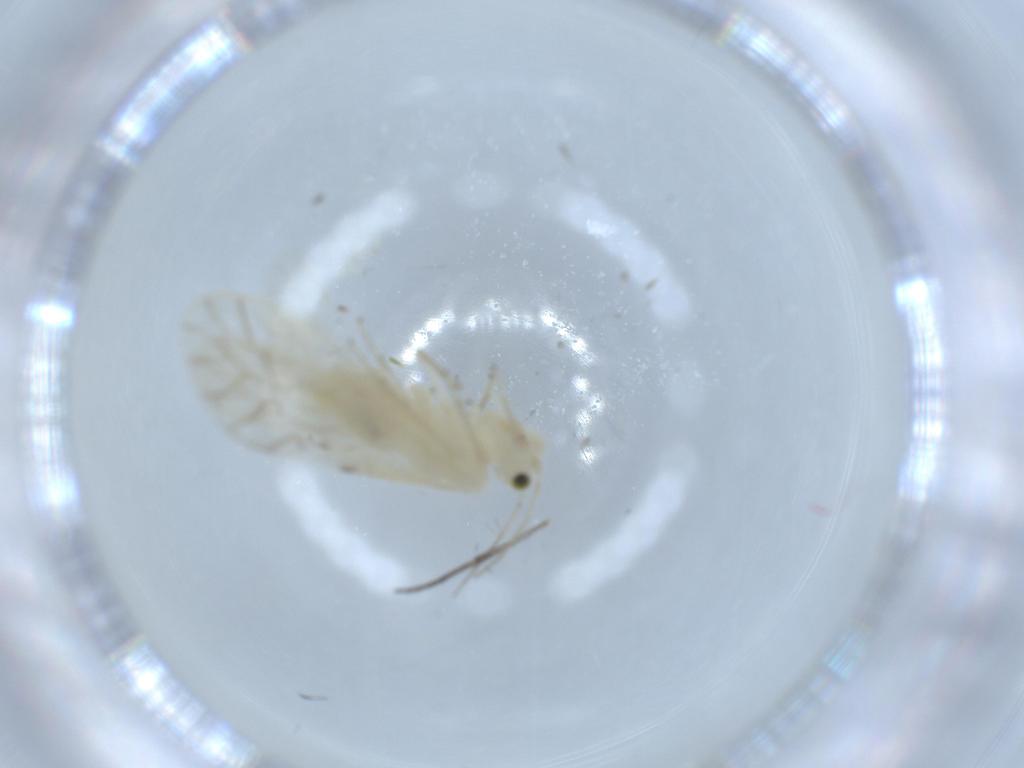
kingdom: Animalia
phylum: Arthropoda
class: Insecta
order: Psocodea
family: Caeciliusidae
